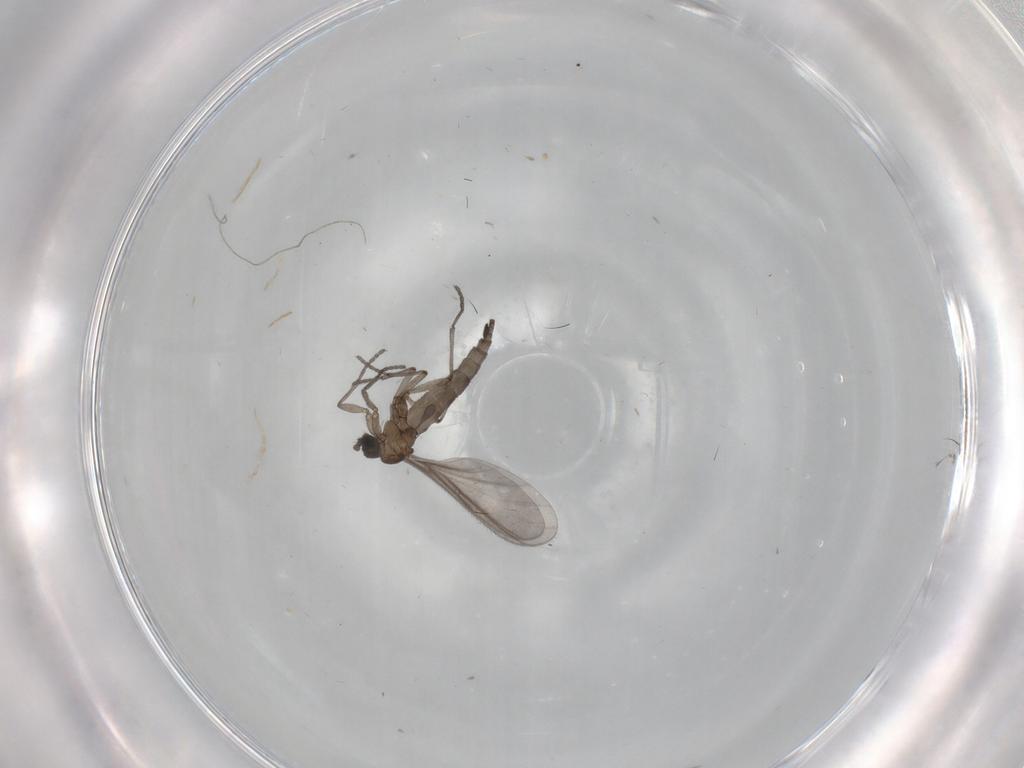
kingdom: Animalia
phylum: Arthropoda
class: Insecta
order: Diptera
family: Sciaridae
